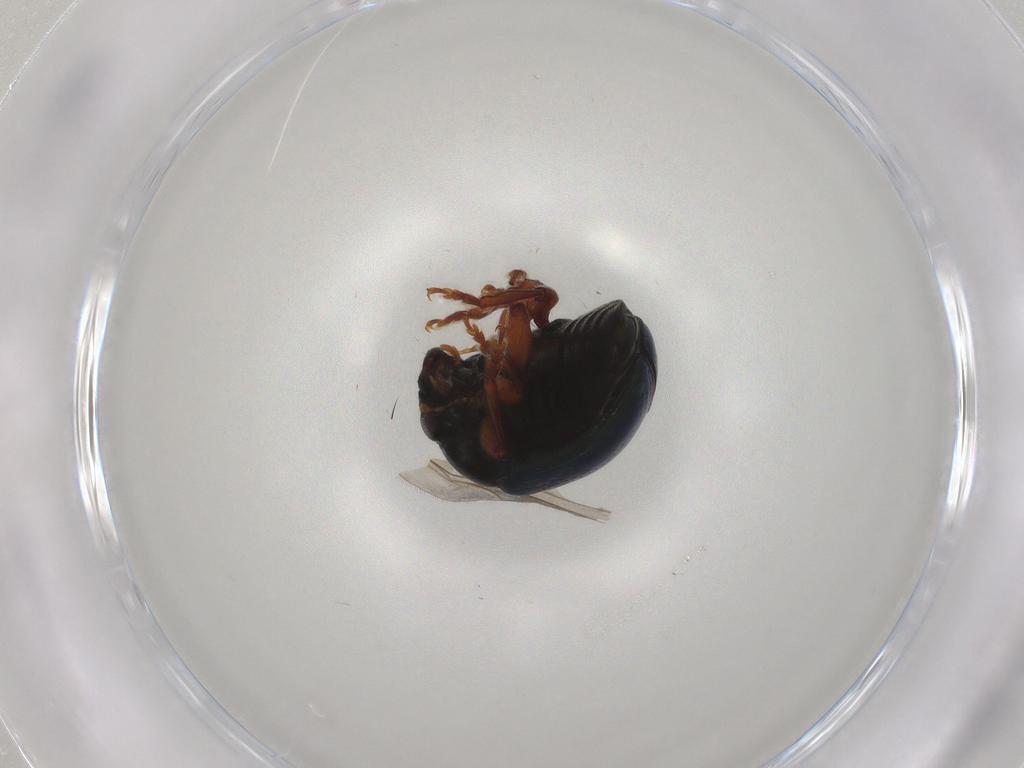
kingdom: Animalia
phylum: Arthropoda
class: Insecta
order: Coleoptera
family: Chrysomelidae
